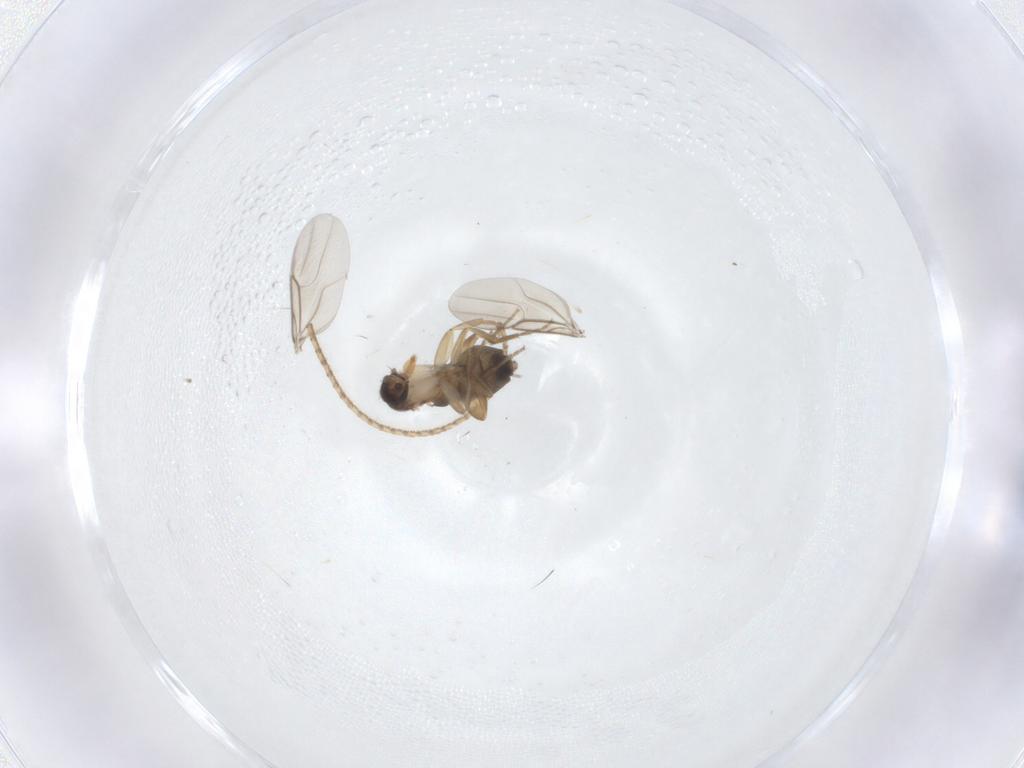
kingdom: Animalia
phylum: Arthropoda
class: Insecta
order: Diptera
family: Phoridae
